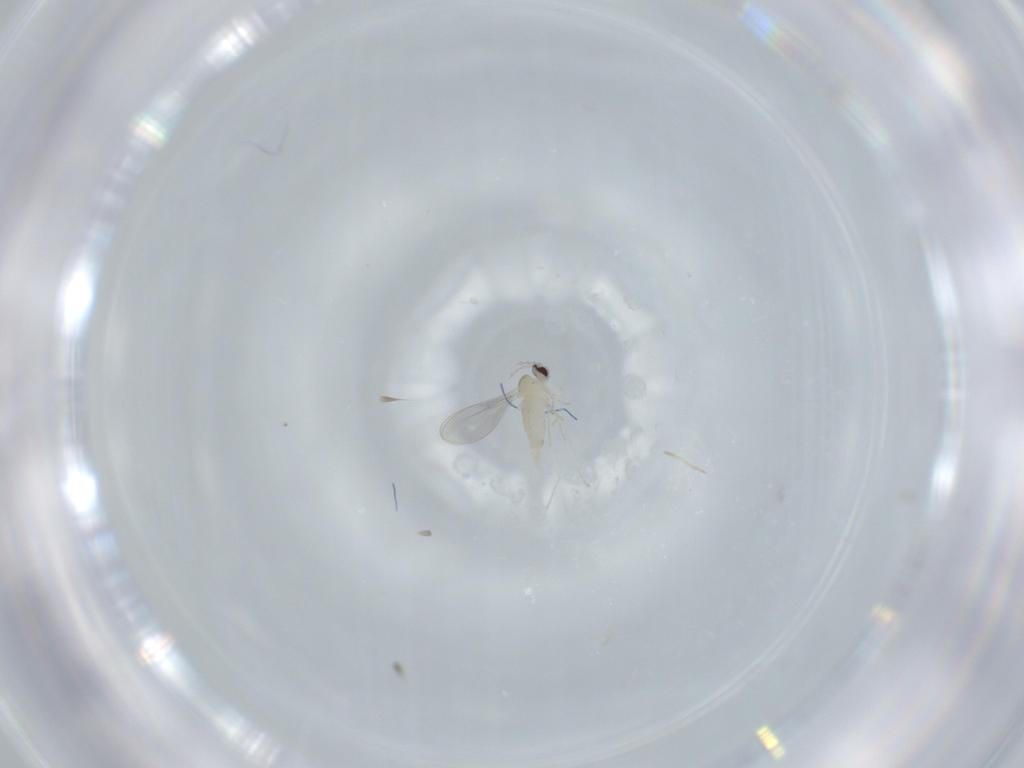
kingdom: Animalia
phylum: Arthropoda
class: Insecta
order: Diptera
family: Cecidomyiidae
